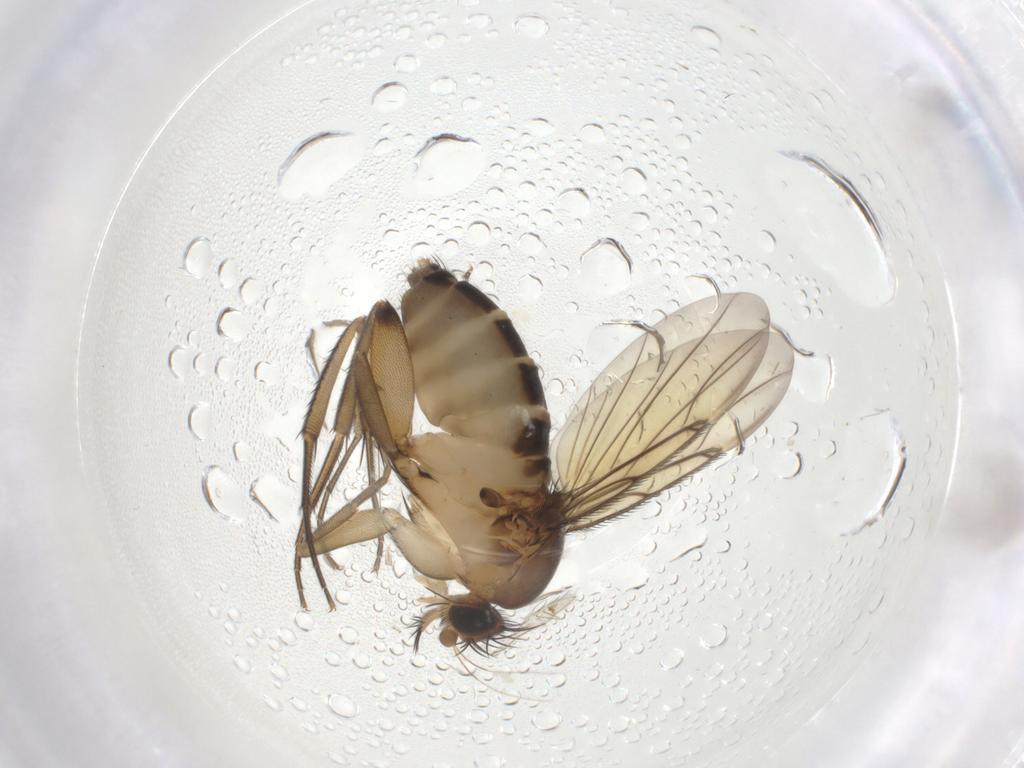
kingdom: Animalia
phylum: Arthropoda
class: Insecta
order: Diptera
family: Phoridae
